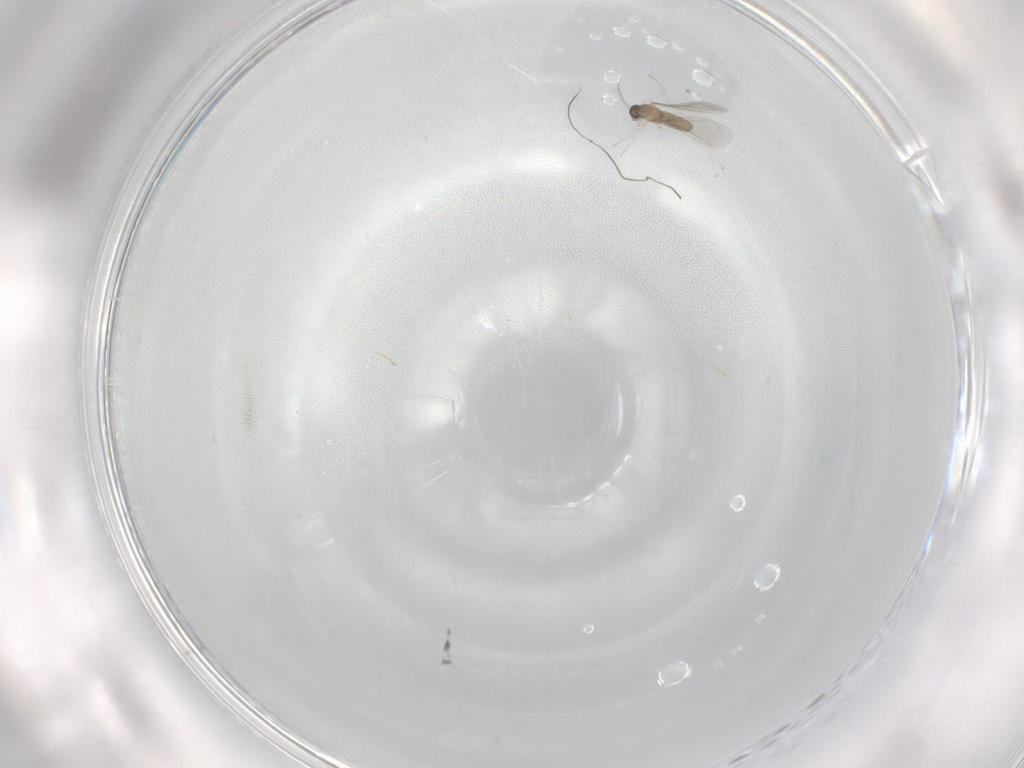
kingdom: Animalia
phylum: Arthropoda
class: Insecta
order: Diptera
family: Cecidomyiidae
